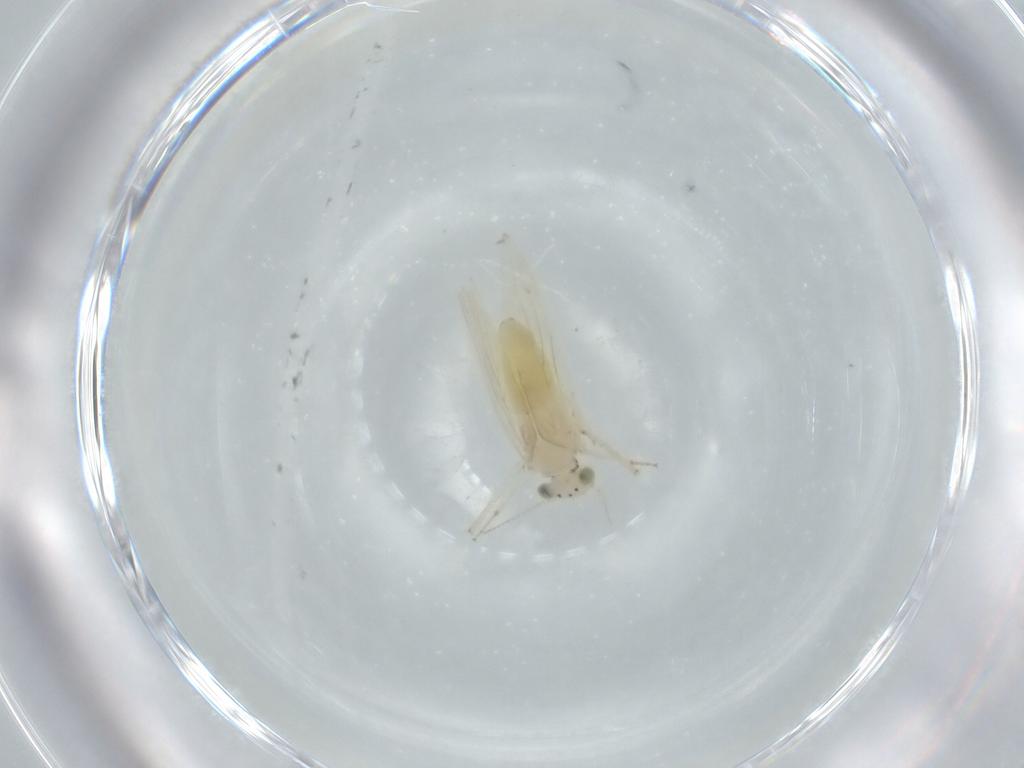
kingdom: Animalia
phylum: Arthropoda
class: Insecta
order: Psocodea
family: Lepidopsocidae
